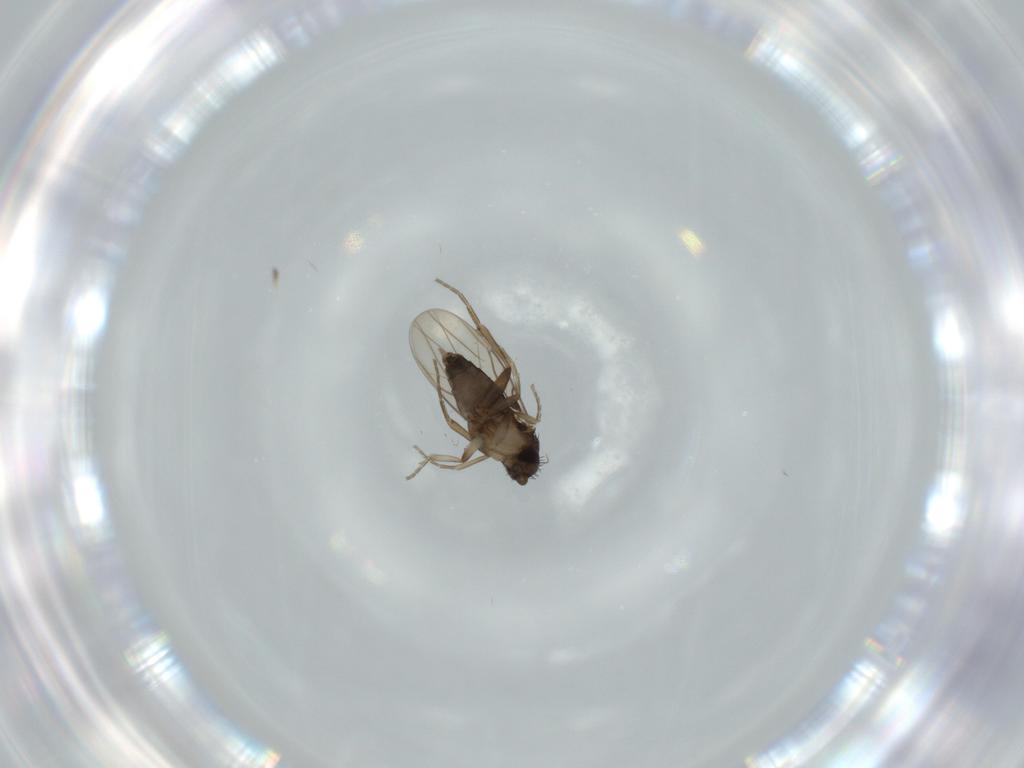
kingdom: Animalia
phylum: Arthropoda
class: Insecta
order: Diptera
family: Phoridae
